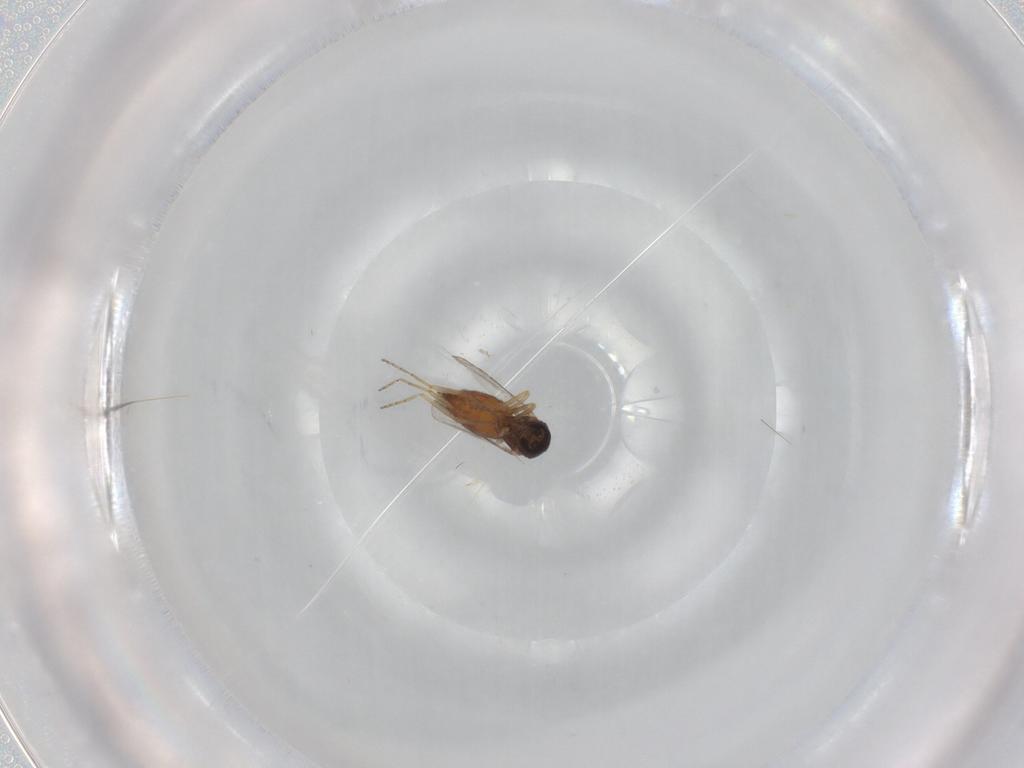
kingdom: Animalia
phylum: Arthropoda
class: Insecta
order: Diptera
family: Ceratopogonidae
